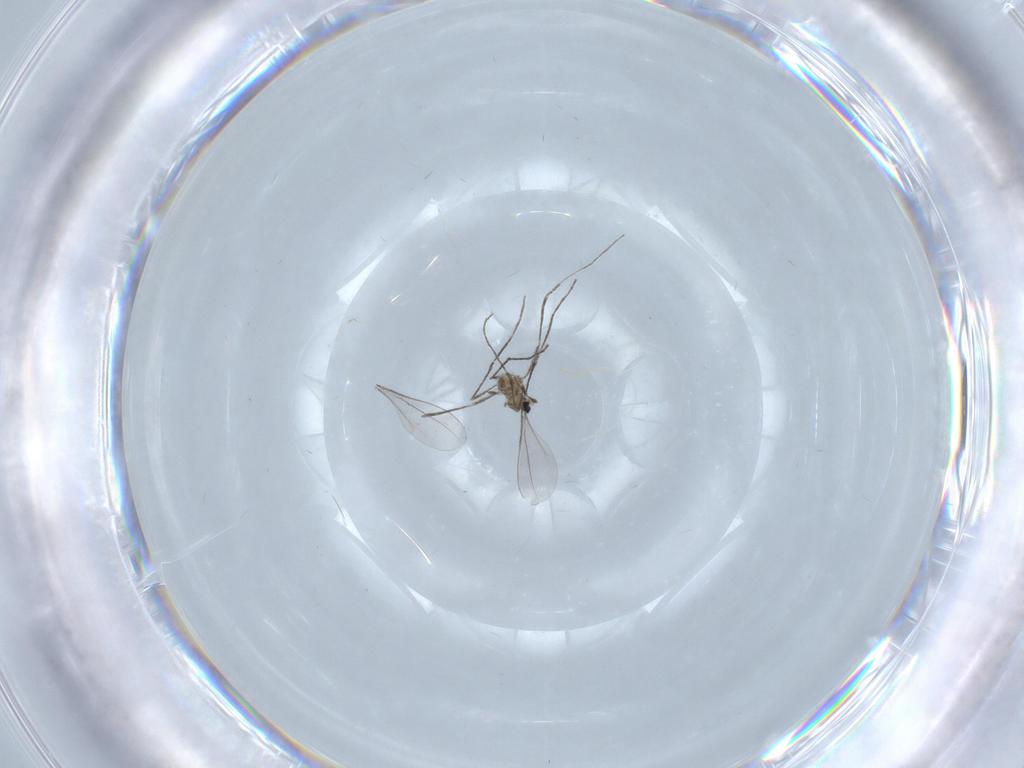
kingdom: Animalia
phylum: Arthropoda
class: Insecta
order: Diptera
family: Cecidomyiidae
